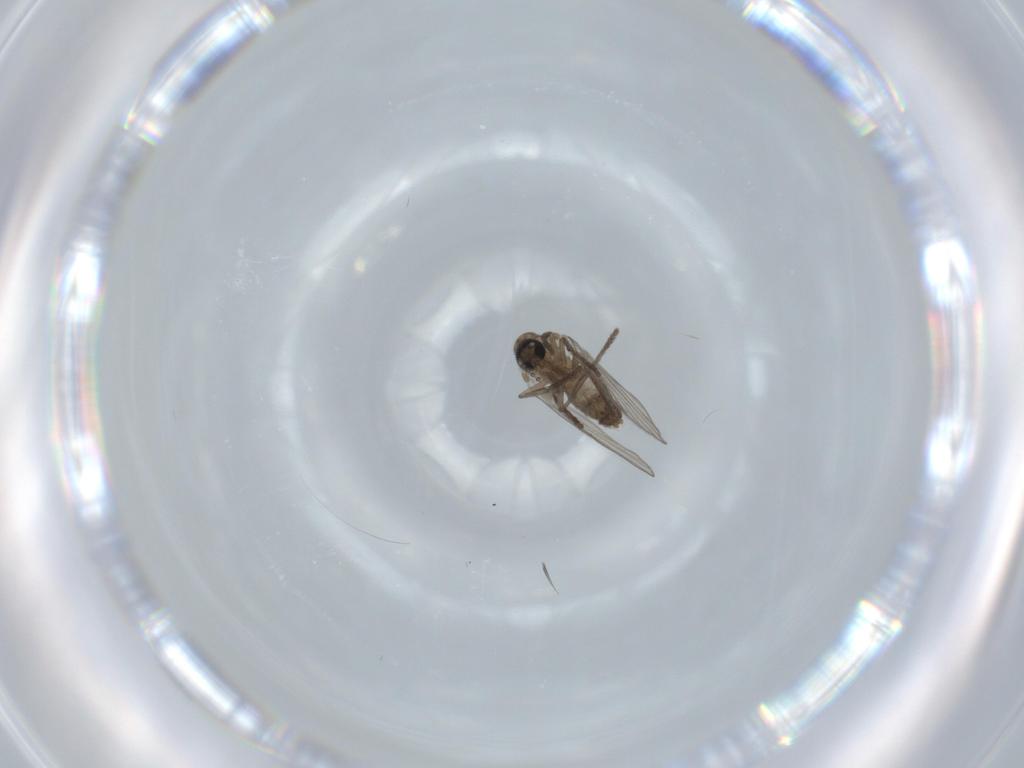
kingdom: Animalia
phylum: Arthropoda
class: Insecta
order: Diptera
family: Psychodidae
